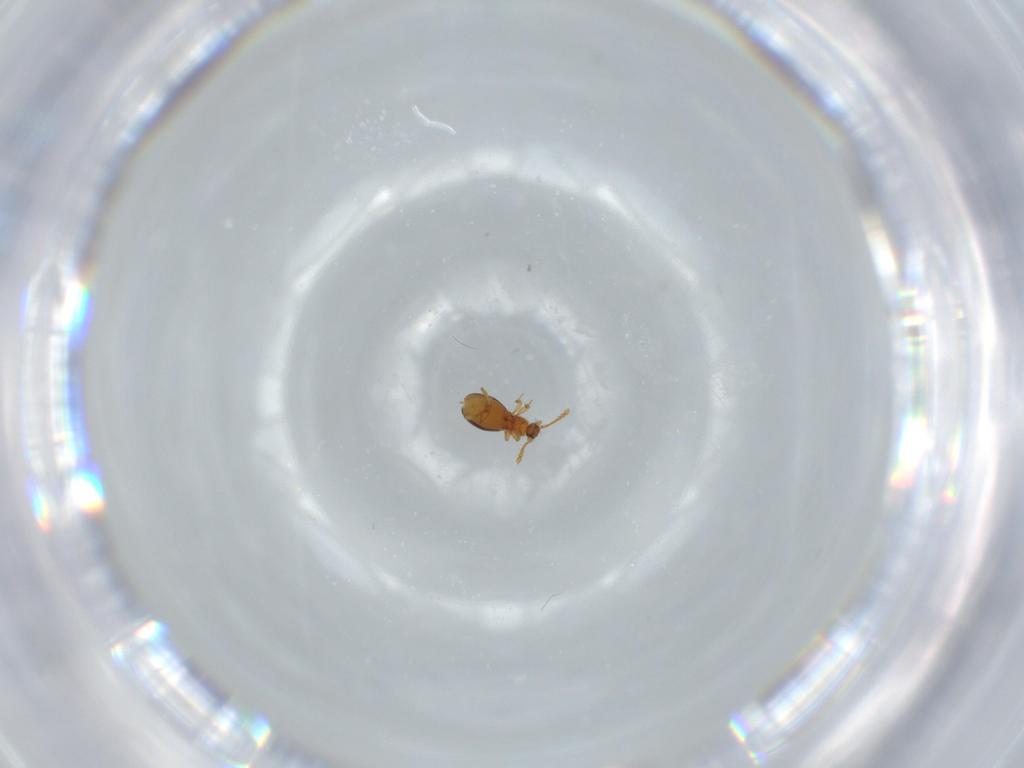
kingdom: Animalia
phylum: Arthropoda
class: Insecta
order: Coleoptera
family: Staphylinidae
